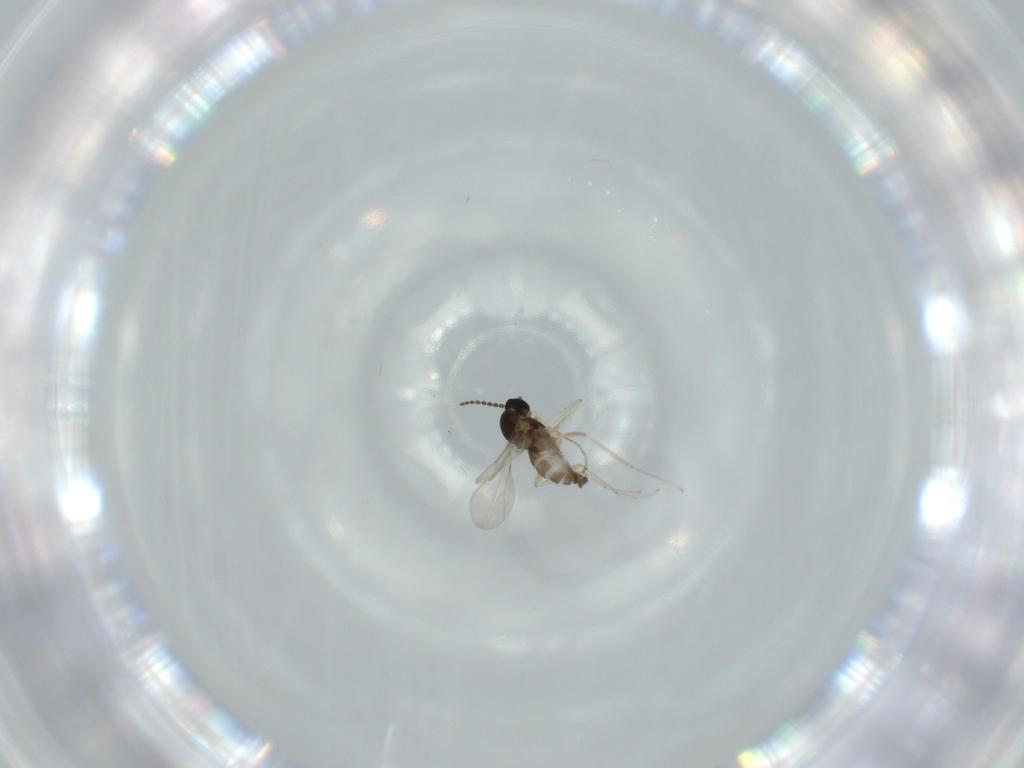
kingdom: Animalia
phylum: Arthropoda
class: Insecta
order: Diptera
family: Cecidomyiidae
